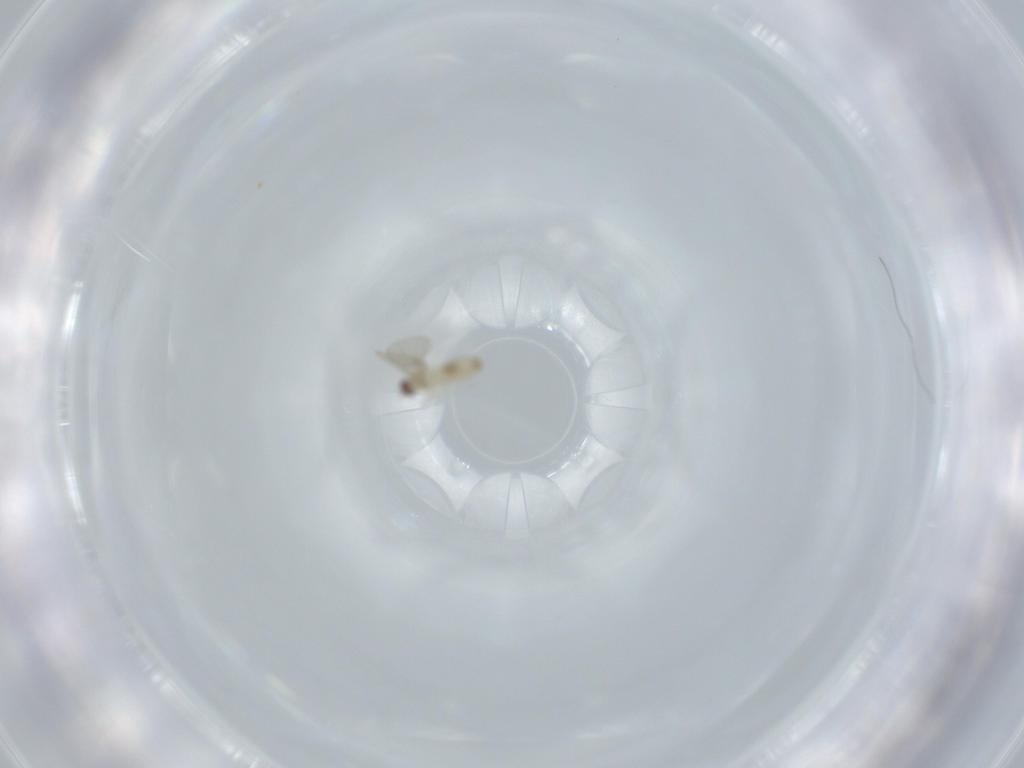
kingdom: Animalia
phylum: Arthropoda
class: Insecta
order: Diptera
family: Cecidomyiidae
